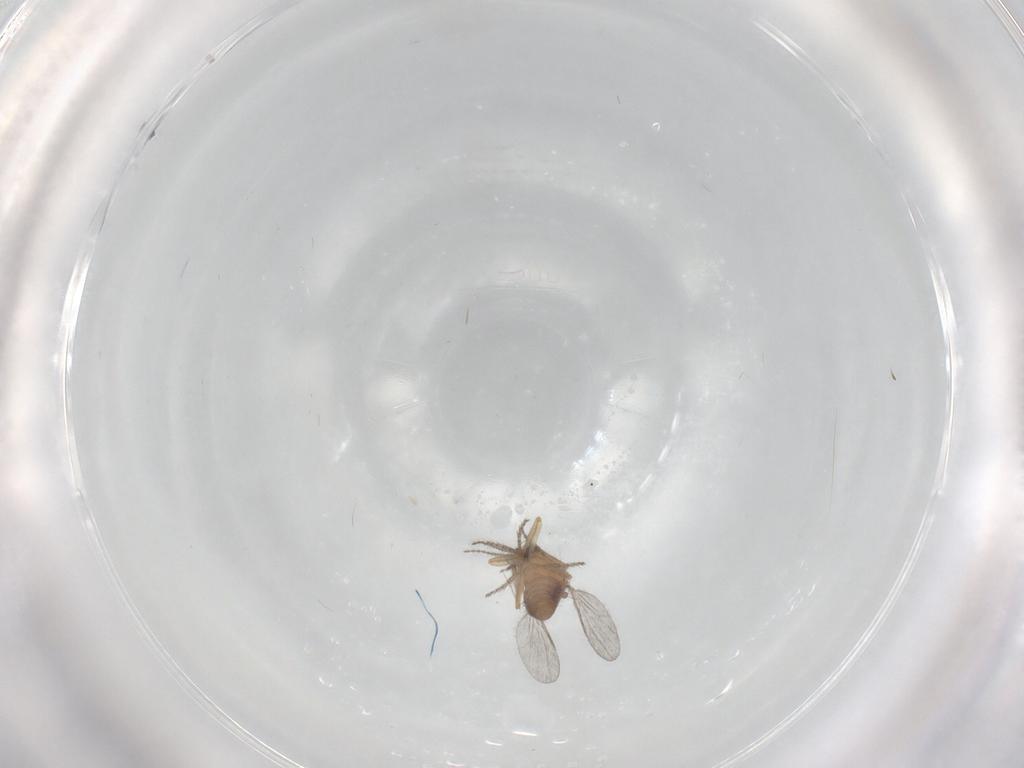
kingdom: Animalia
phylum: Arthropoda
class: Insecta
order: Diptera
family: Ceratopogonidae
